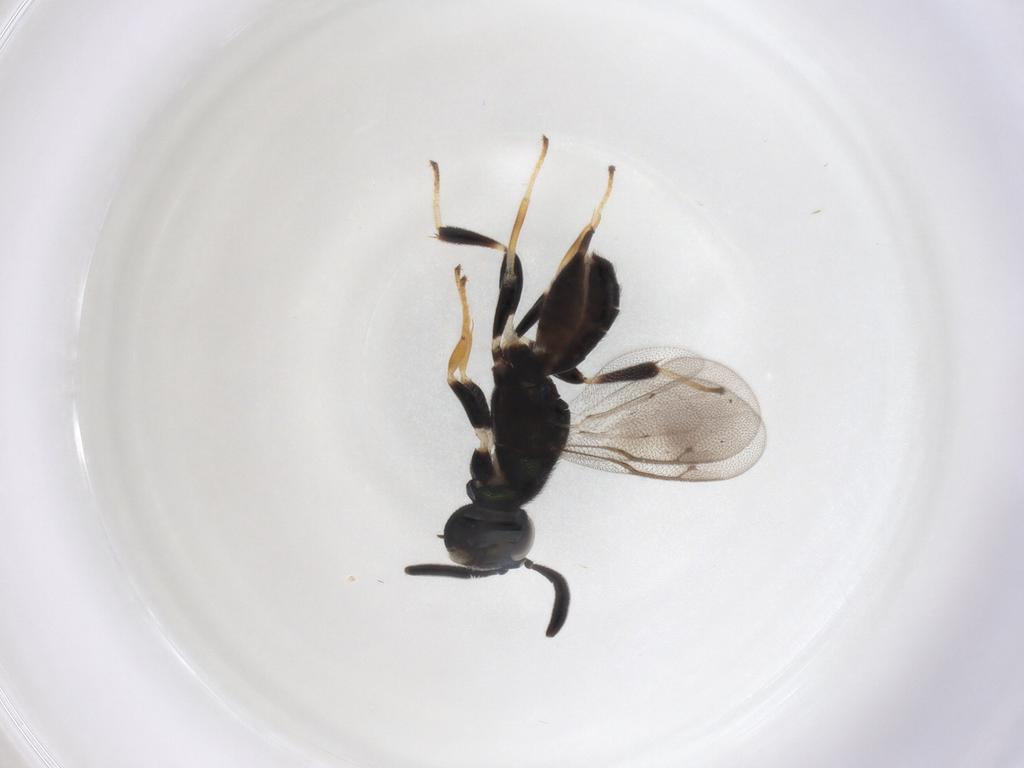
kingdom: Animalia
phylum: Arthropoda
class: Insecta
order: Hymenoptera
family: Eupelmidae
